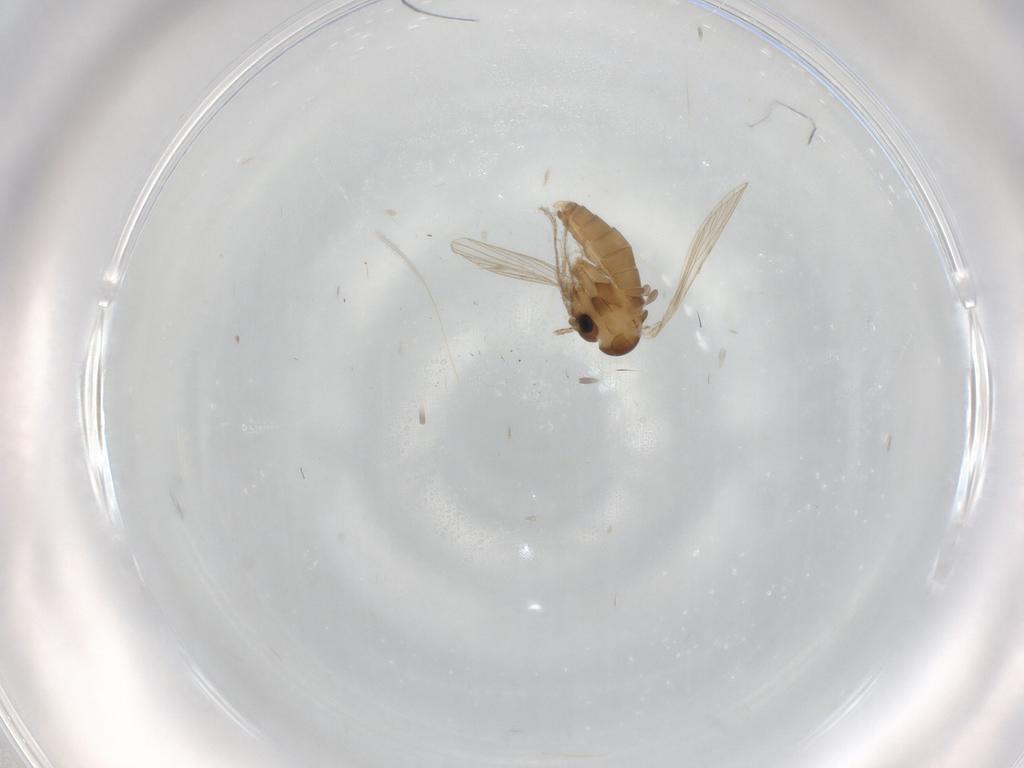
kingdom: Animalia
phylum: Arthropoda
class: Insecta
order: Diptera
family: Psychodidae
